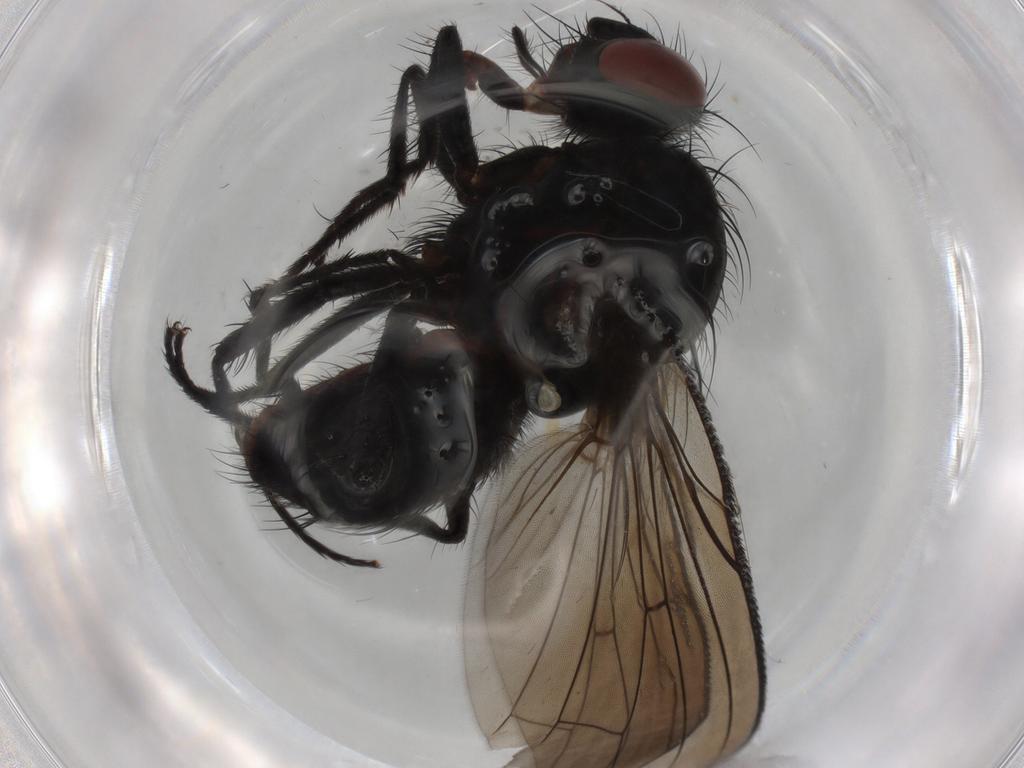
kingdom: Animalia
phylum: Arthropoda
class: Insecta
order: Diptera
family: Anthomyiidae
